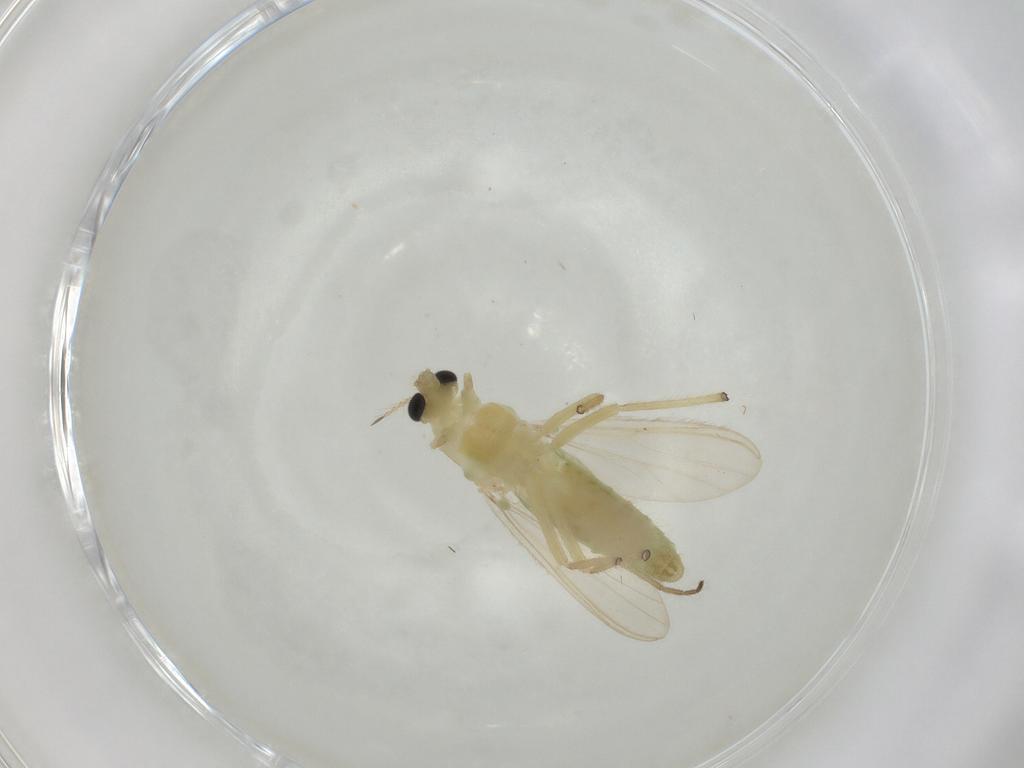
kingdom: Animalia
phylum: Arthropoda
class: Insecta
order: Diptera
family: Chironomidae
